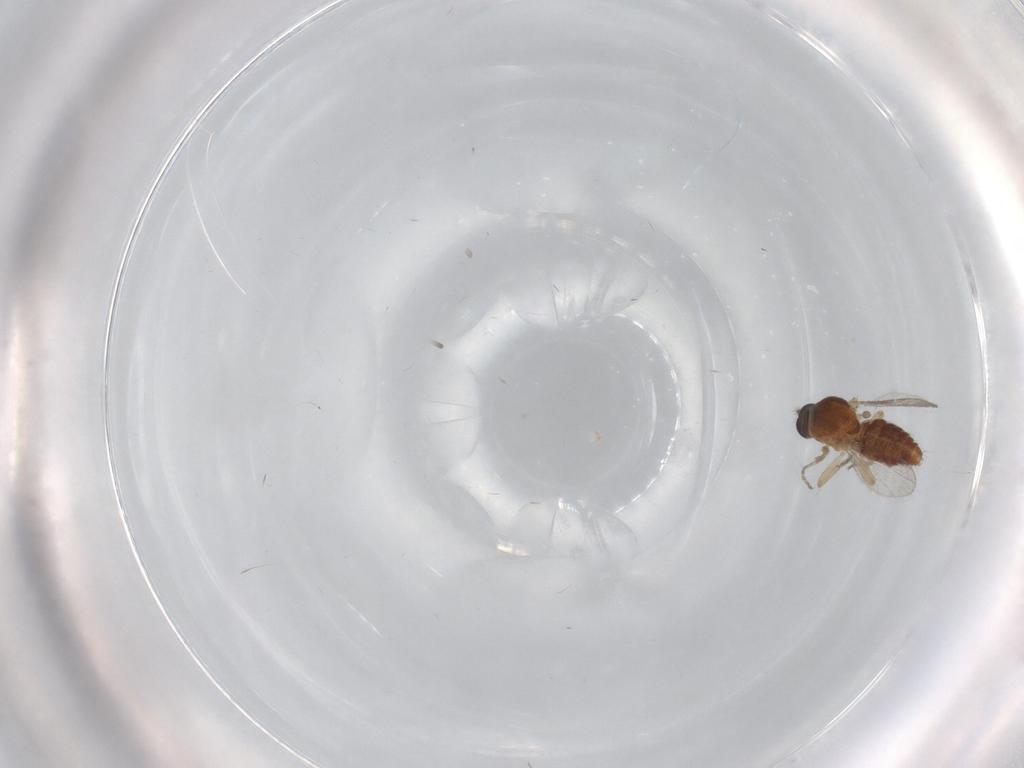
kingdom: Animalia
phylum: Arthropoda
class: Insecta
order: Diptera
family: Ceratopogonidae
